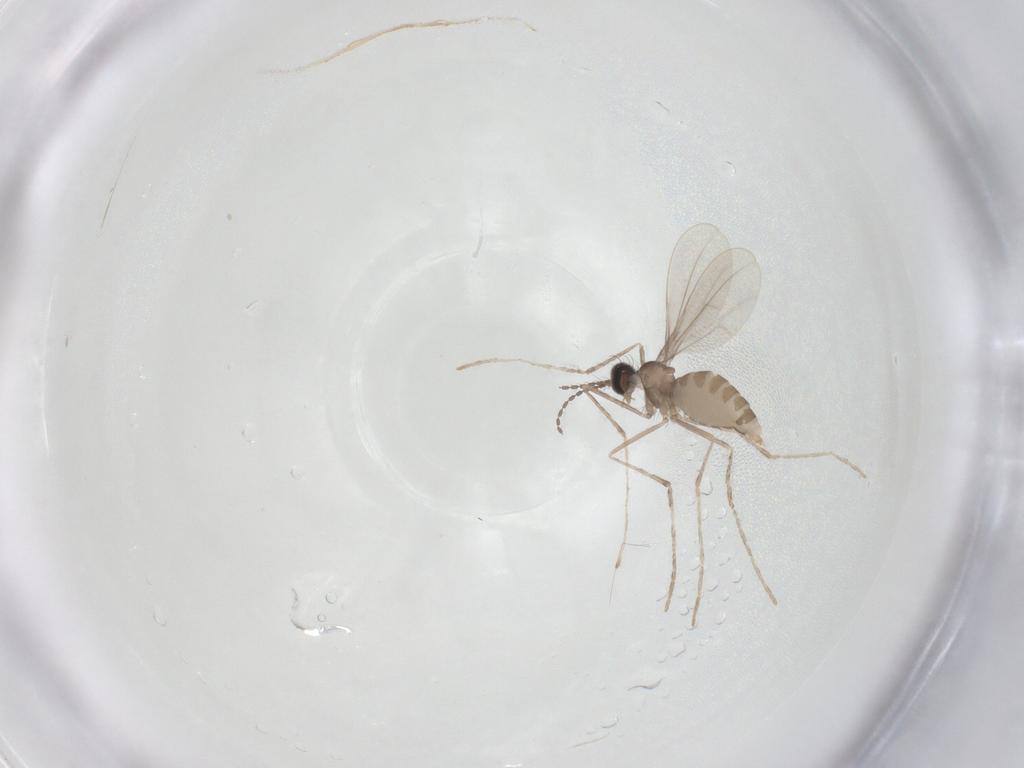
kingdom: Animalia
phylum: Arthropoda
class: Insecta
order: Diptera
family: Cecidomyiidae
